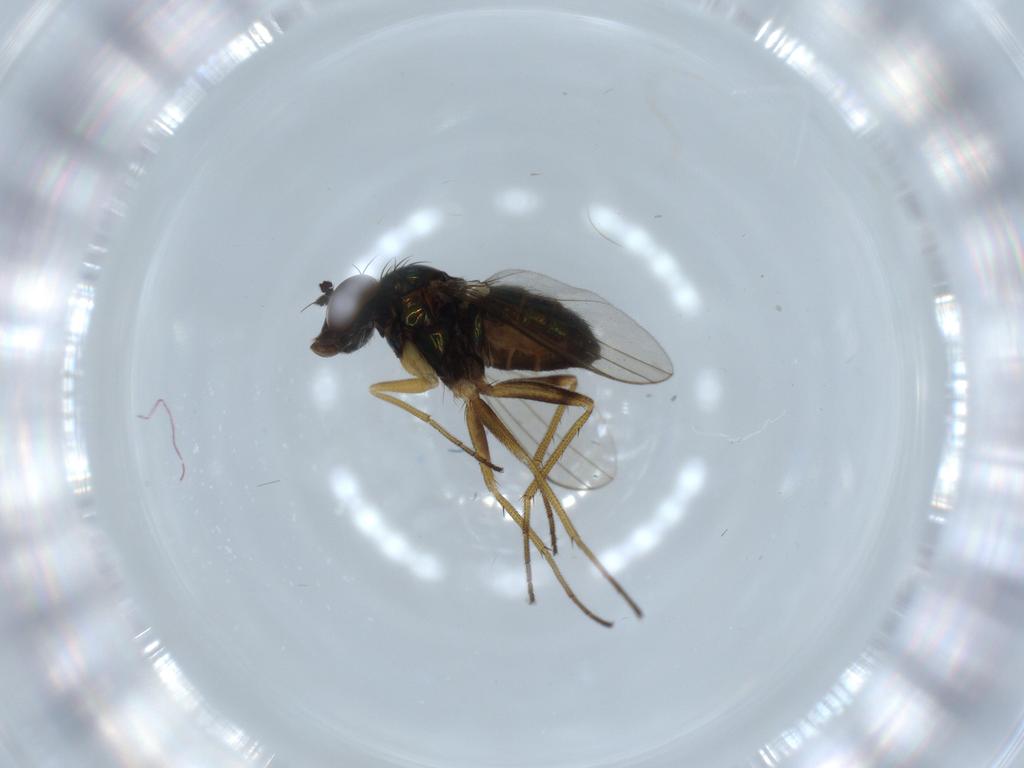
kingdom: Animalia
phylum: Arthropoda
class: Insecta
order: Diptera
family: Dolichopodidae
